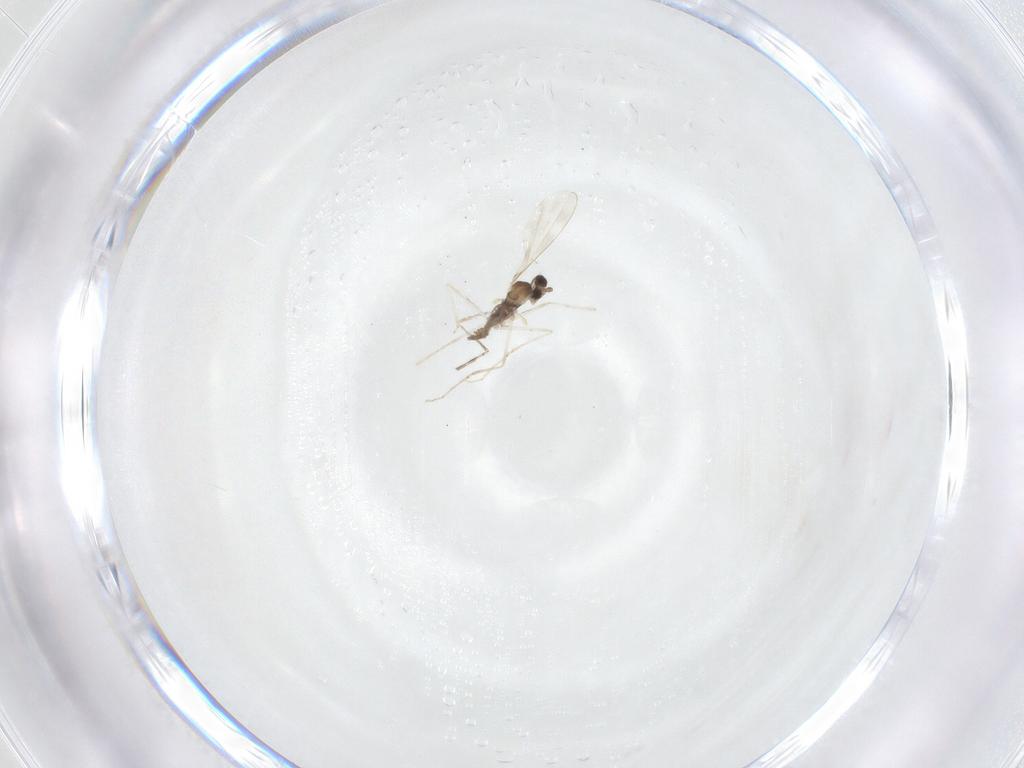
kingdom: Animalia
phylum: Arthropoda
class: Insecta
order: Diptera
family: Cecidomyiidae
